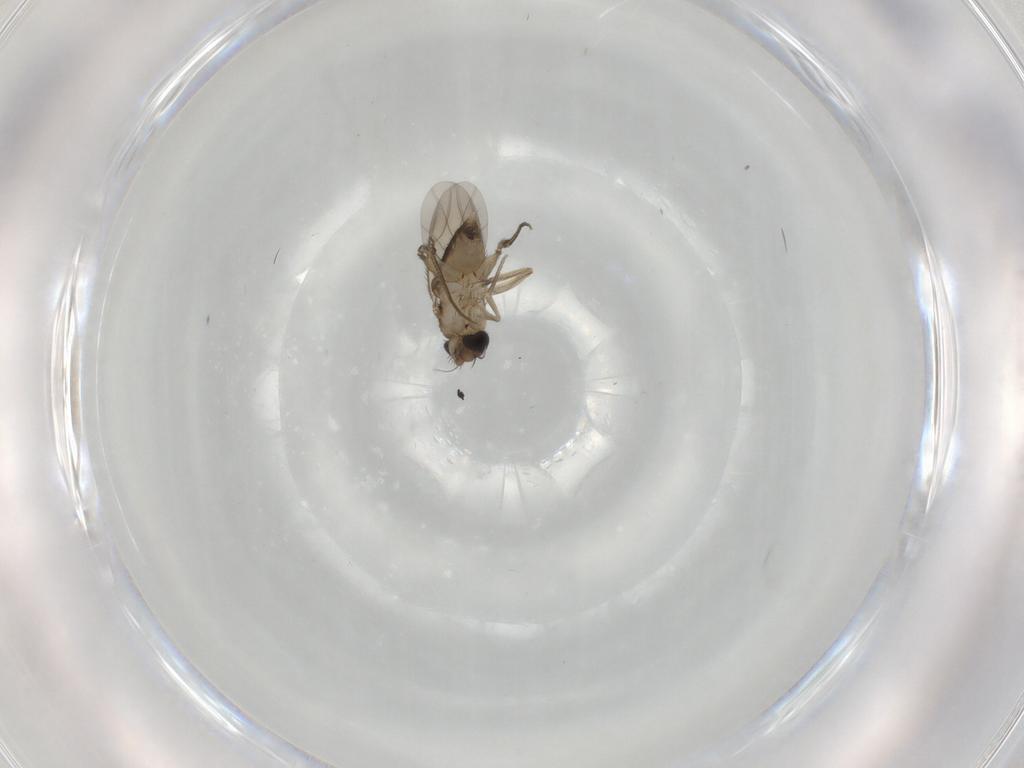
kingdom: Animalia
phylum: Arthropoda
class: Insecta
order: Diptera
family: Phoridae
